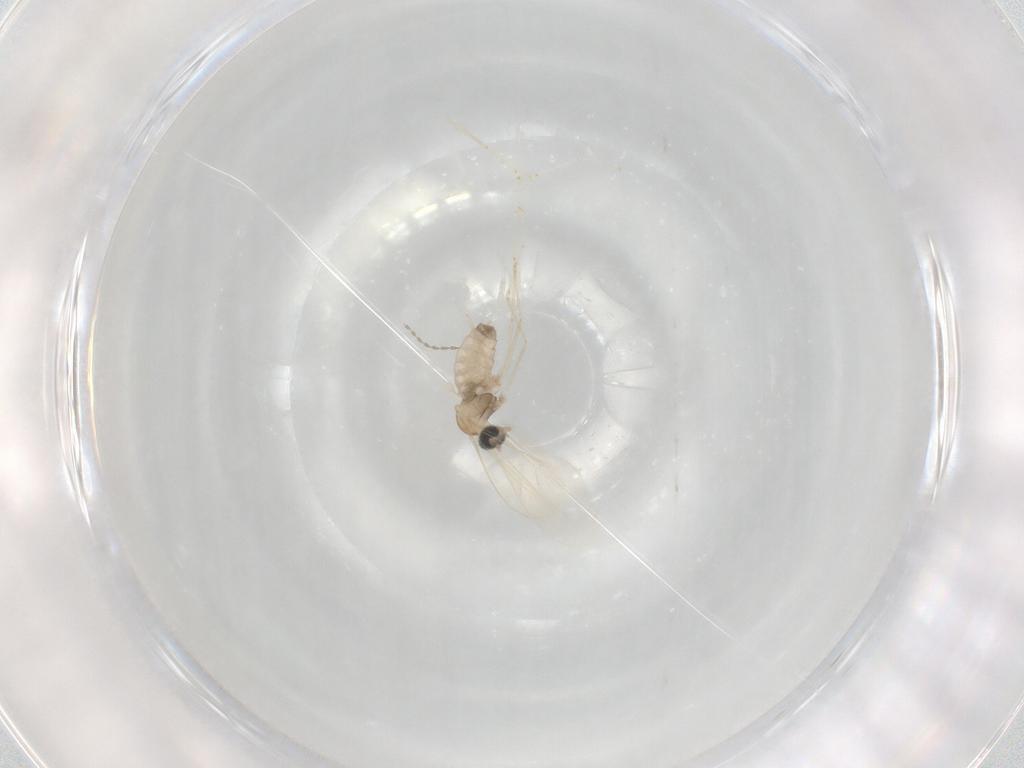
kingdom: Animalia
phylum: Arthropoda
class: Insecta
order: Diptera
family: Cecidomyiidae
